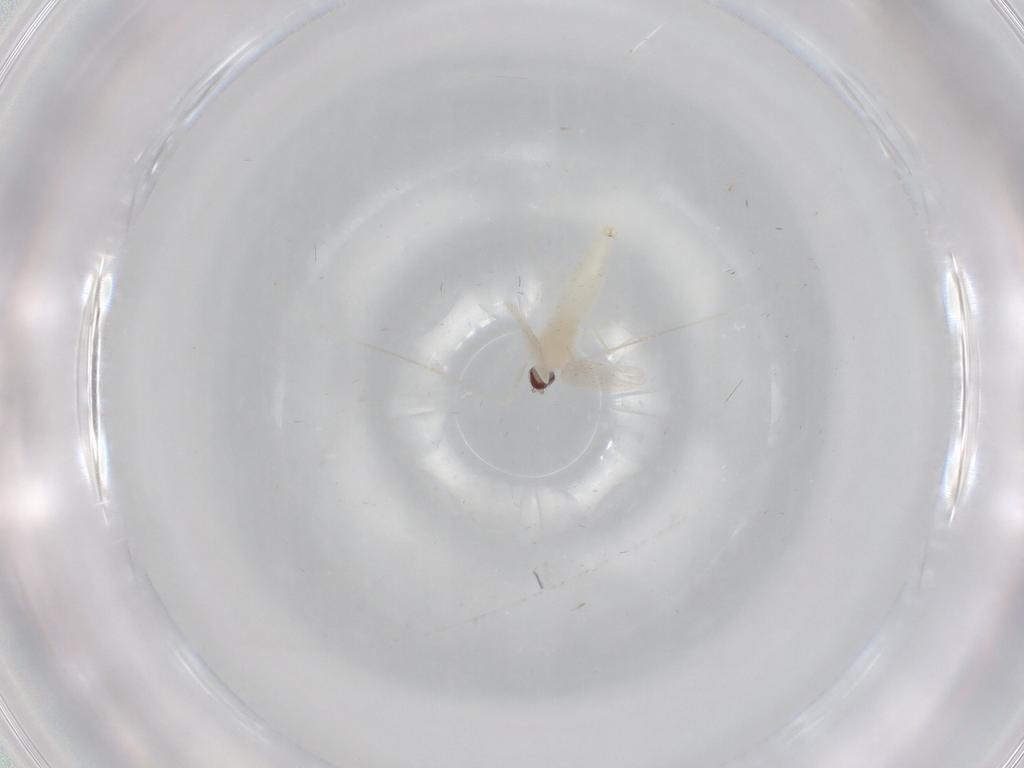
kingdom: Animalia
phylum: Arthropoda
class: Insecta
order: Diptera
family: Cecidomyiidae
